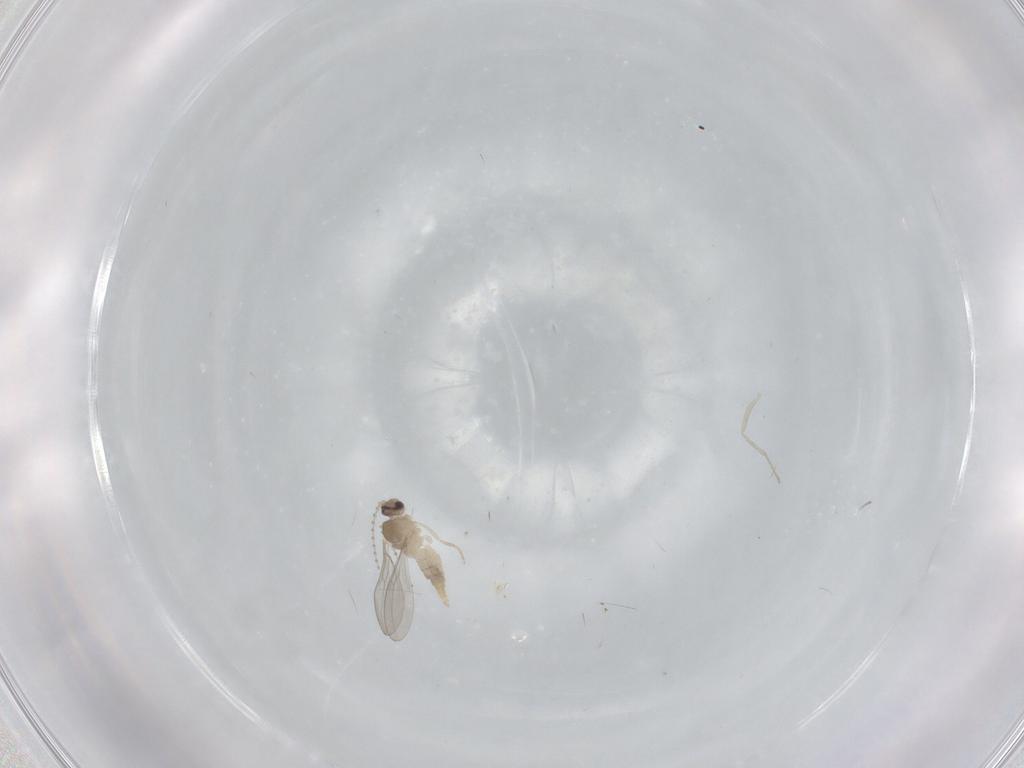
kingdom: Animalia
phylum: Arthropoda
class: Insecta
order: Diptera
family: Cecidomyiidae
